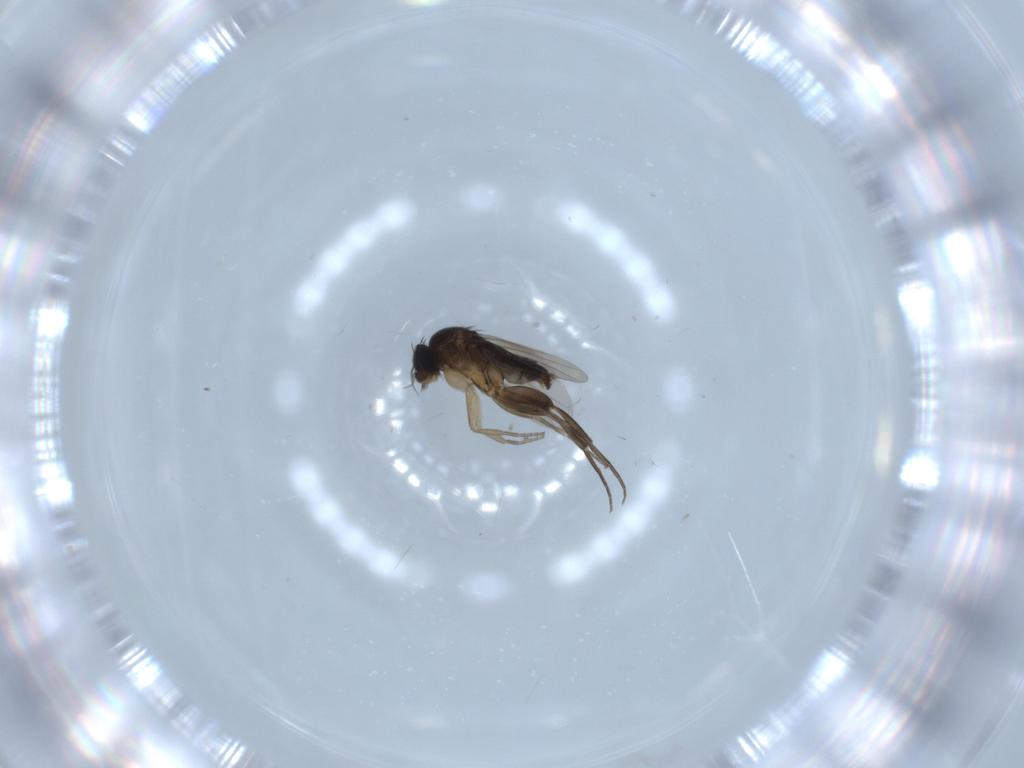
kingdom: Animalia
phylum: Arthropoda
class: Insecta
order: Diptera
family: Phoridae
